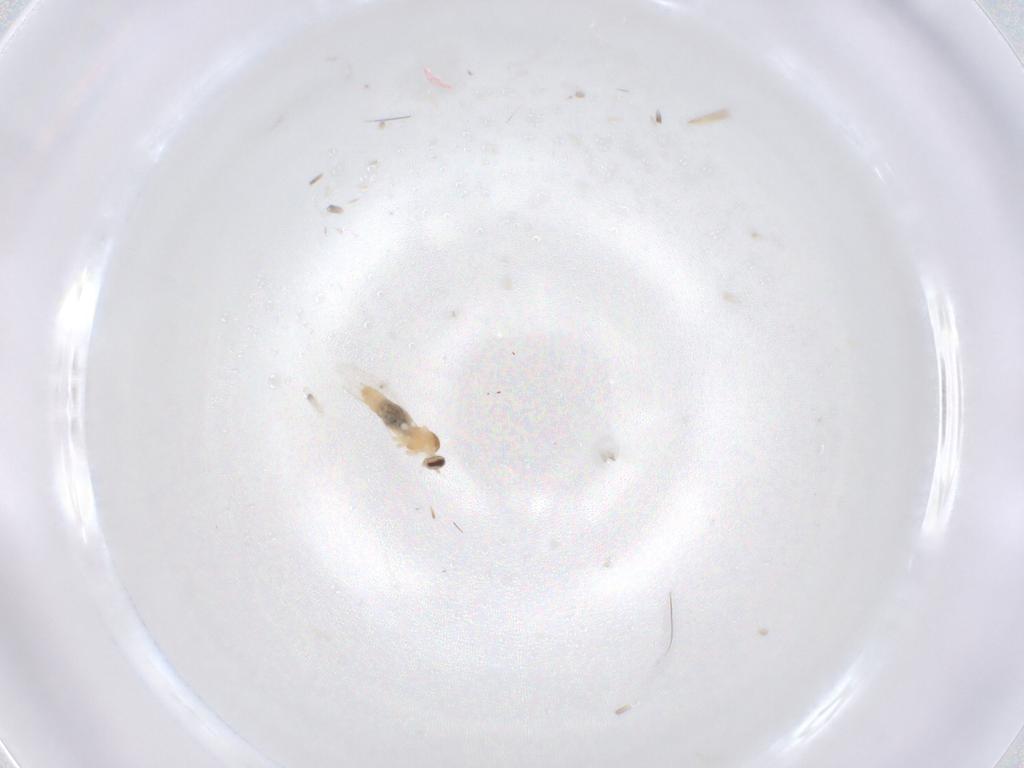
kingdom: Animalia
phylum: Arthropoda
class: Insecta
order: Diptera
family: Cecidomyiidae
